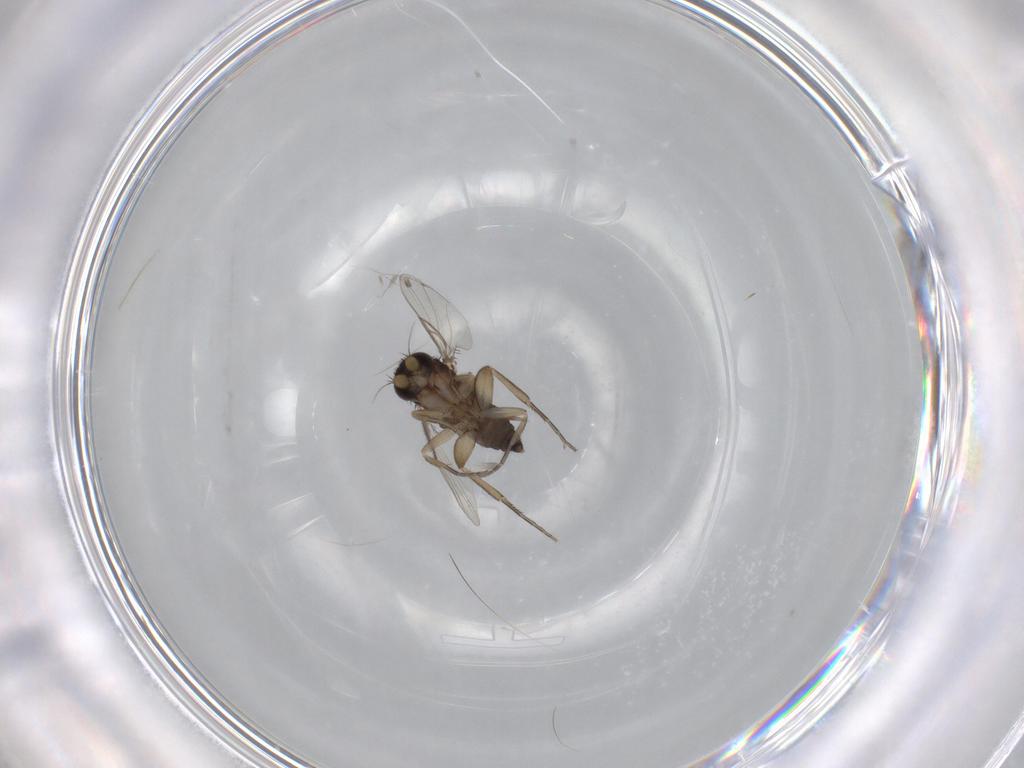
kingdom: Animalia
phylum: Arthropoda
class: Insecta
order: Diptera
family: Phoridae
